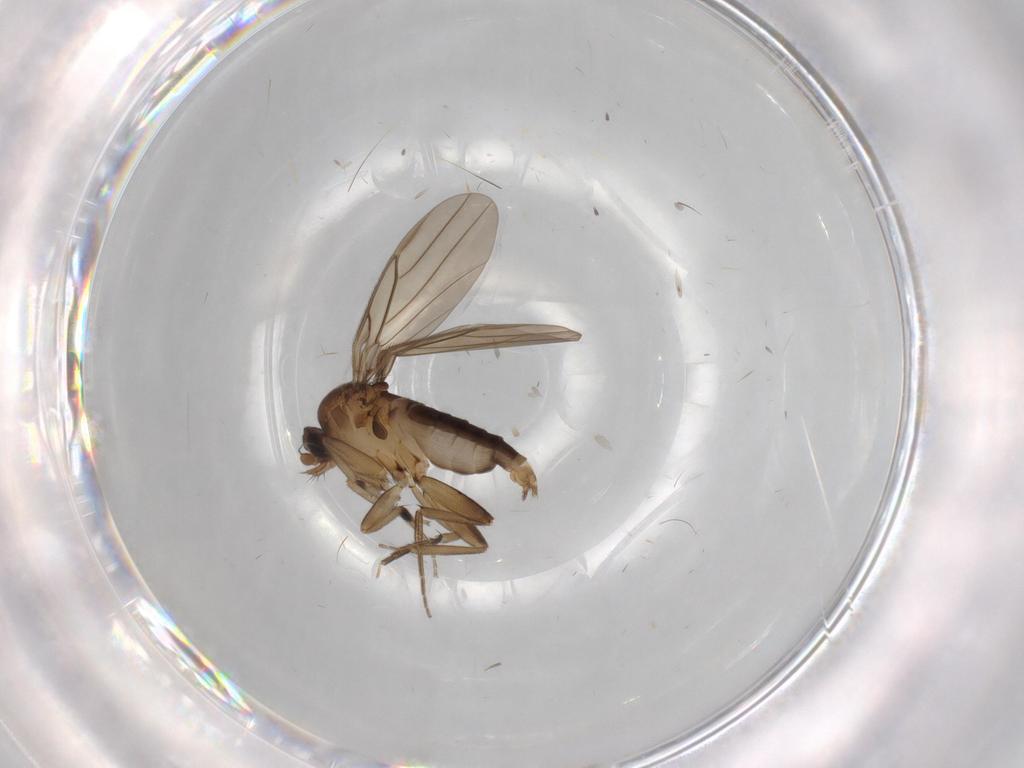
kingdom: Animalia
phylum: Arthropoda
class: Insecta
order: Diptera
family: Phoridae
